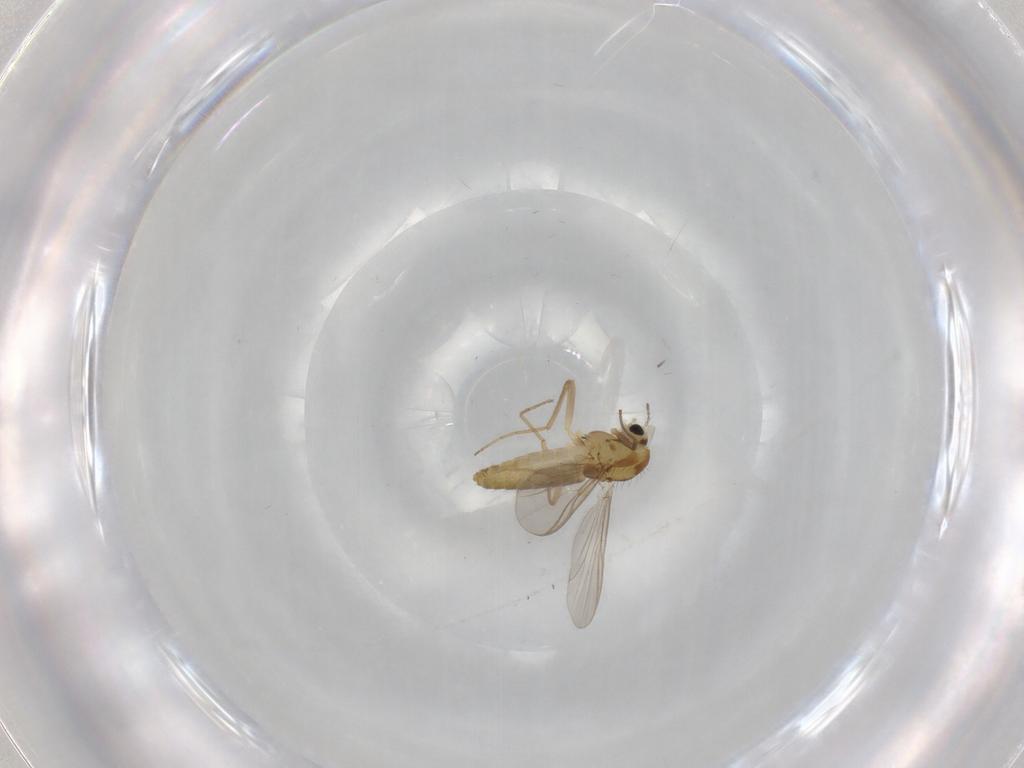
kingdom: Animalia
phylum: Arthropoda
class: Insecta
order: Diptera
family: Chironomidae
